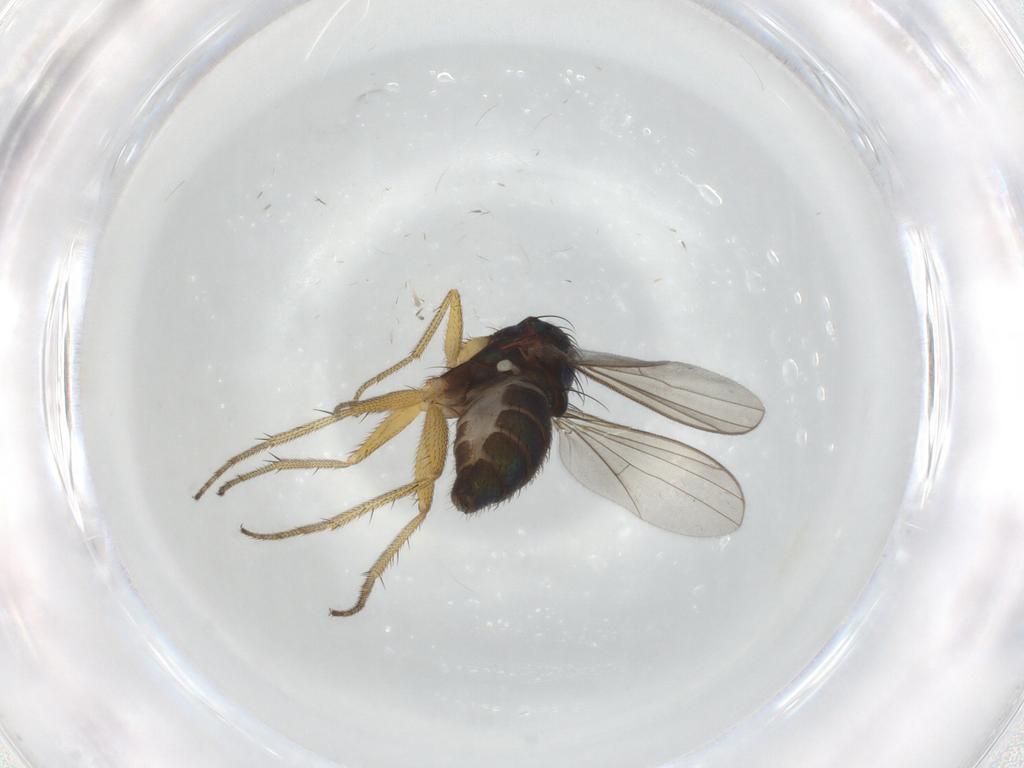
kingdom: Animalia
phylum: Arthropoda
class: Insecta
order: Diptera
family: Dolichopodidae
